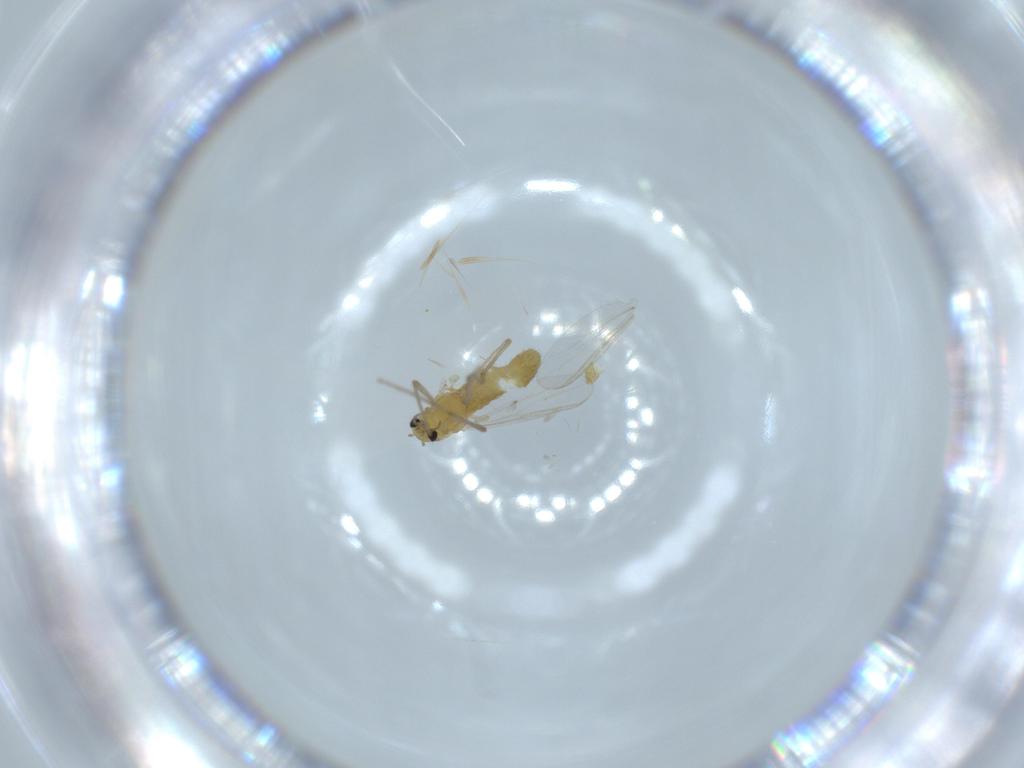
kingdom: Animalia
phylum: Arthropoda
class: Insecta
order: Diptera
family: Chironomidae
